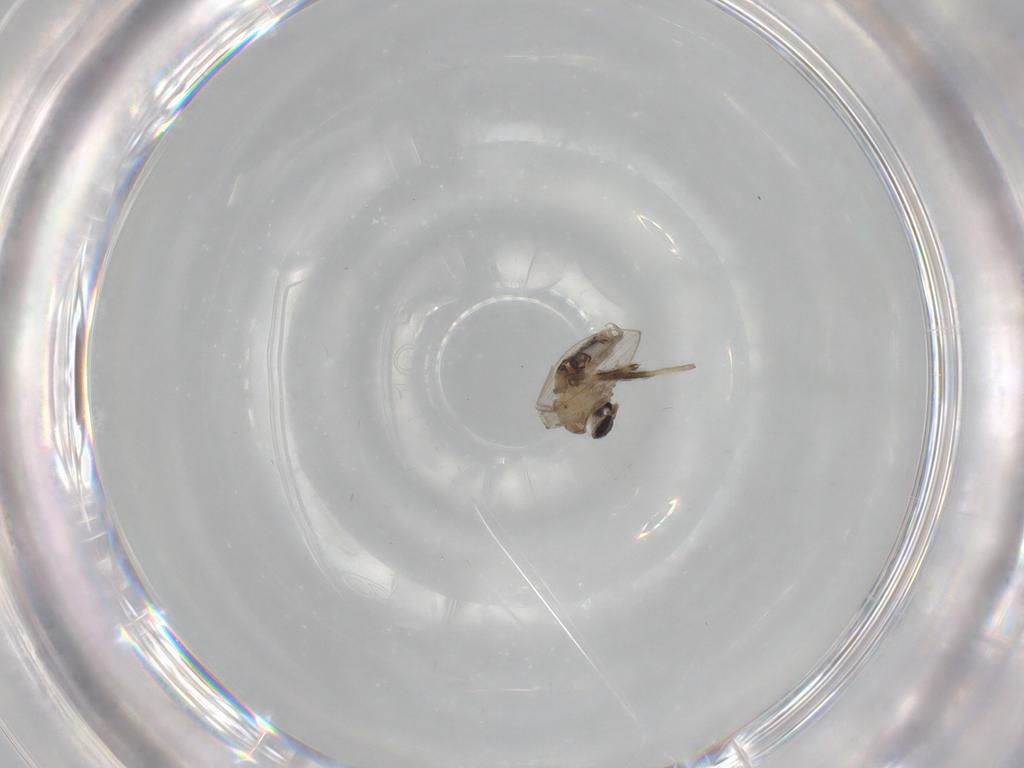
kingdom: Animalia
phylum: Arthropoda
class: Insecta
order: Diptera
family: Psychodidae
